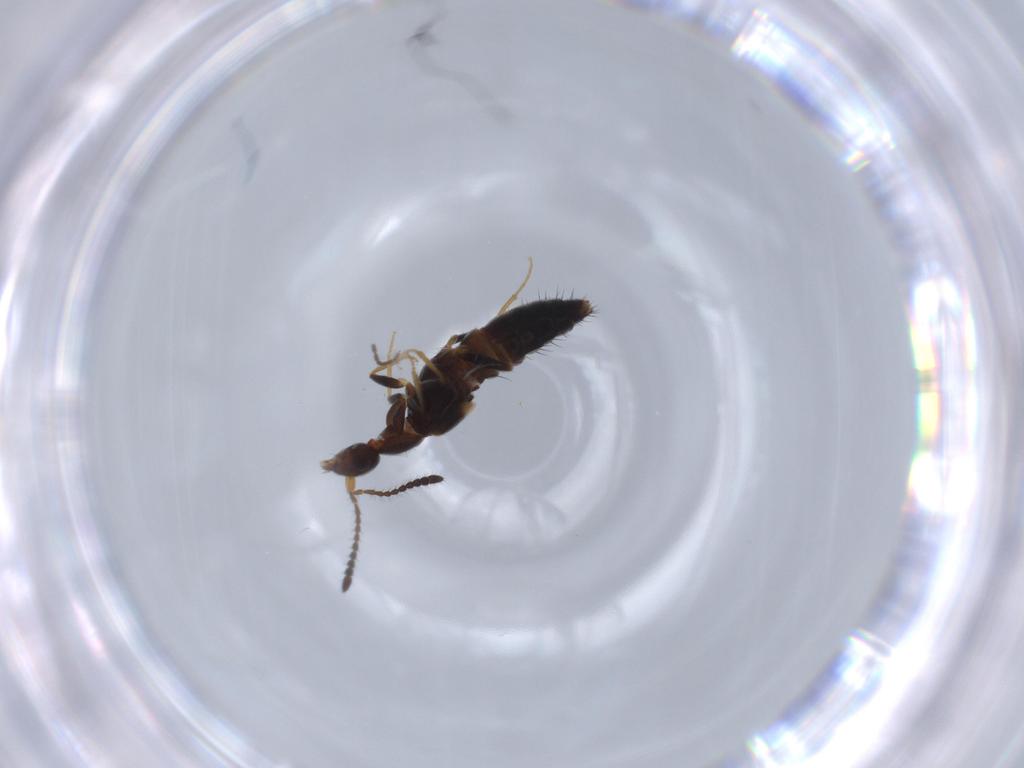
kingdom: Animalia
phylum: Arthropoda
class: Insecta
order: Coleoptera
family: Staphylinidae
